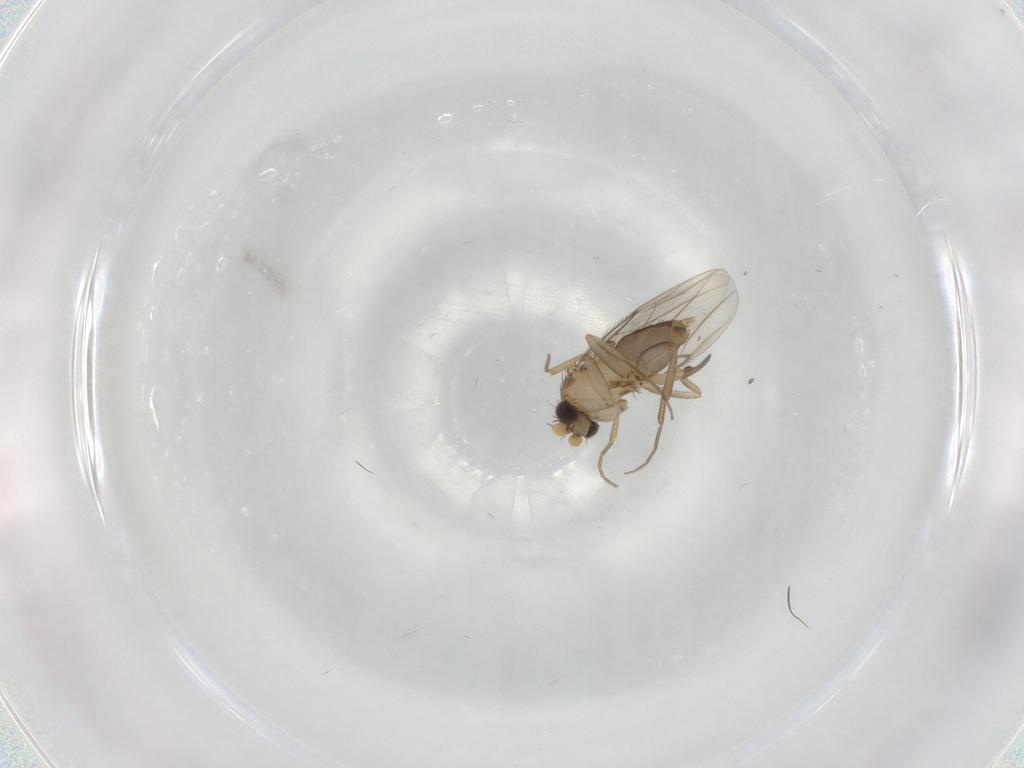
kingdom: Animalia
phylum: Arthropoda
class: Insecta
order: Diptera
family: Phoridae
